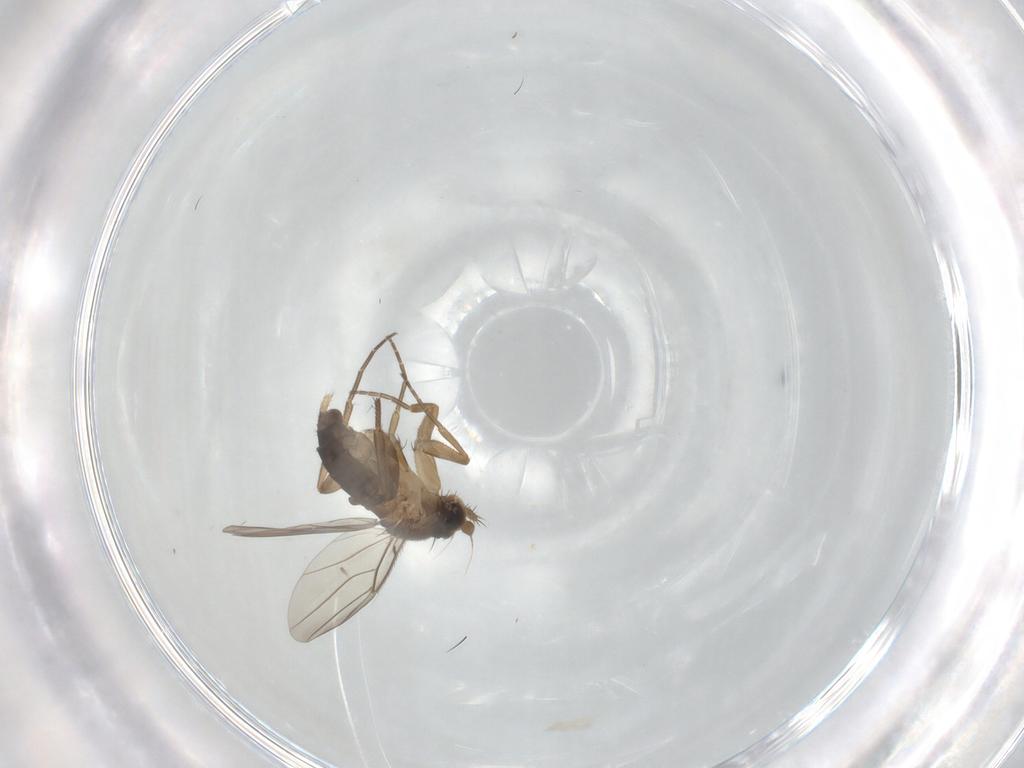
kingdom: Animalia
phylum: Arthropoda
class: Insecta
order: Diptera
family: Phoridae
